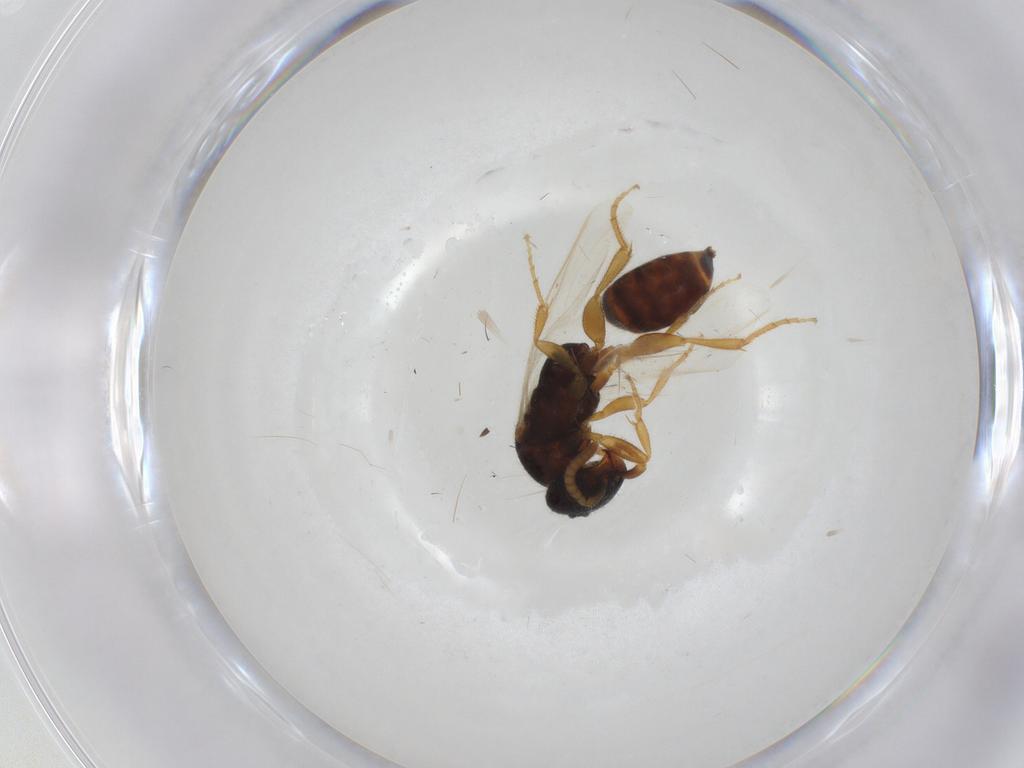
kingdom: Animalia
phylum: Arthropoda
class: Insecta
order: Hymenoptera
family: Bethylidae
